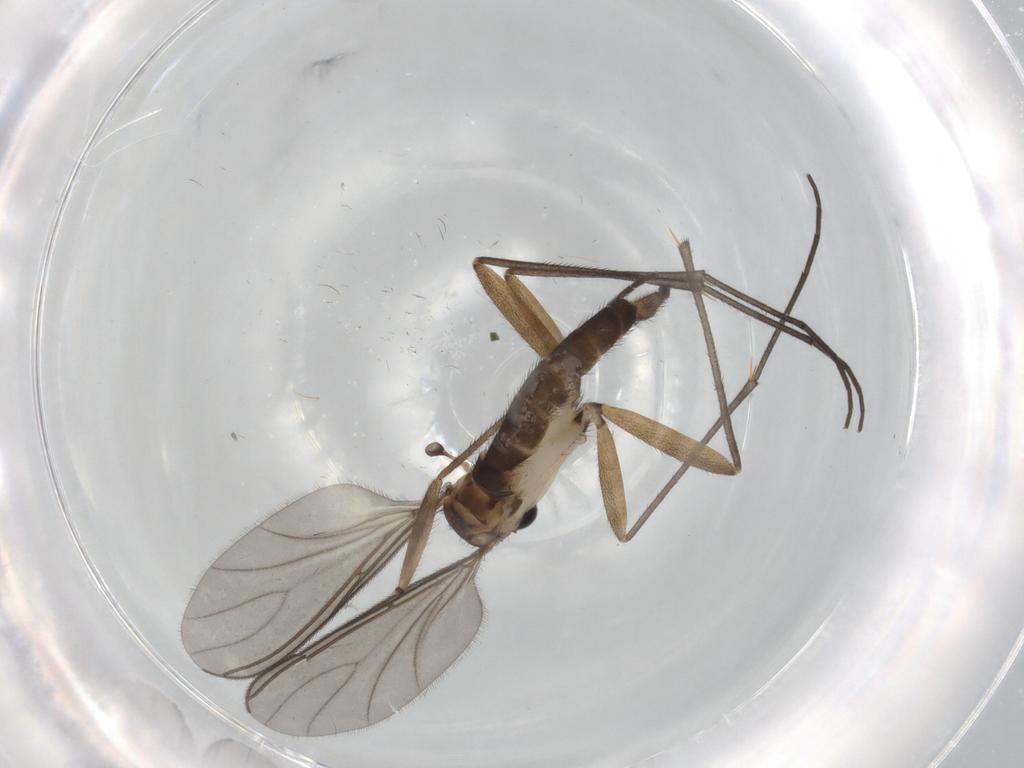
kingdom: Animalia
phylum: Arthropoda
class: Insecta
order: Diptera
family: Sciaridae
